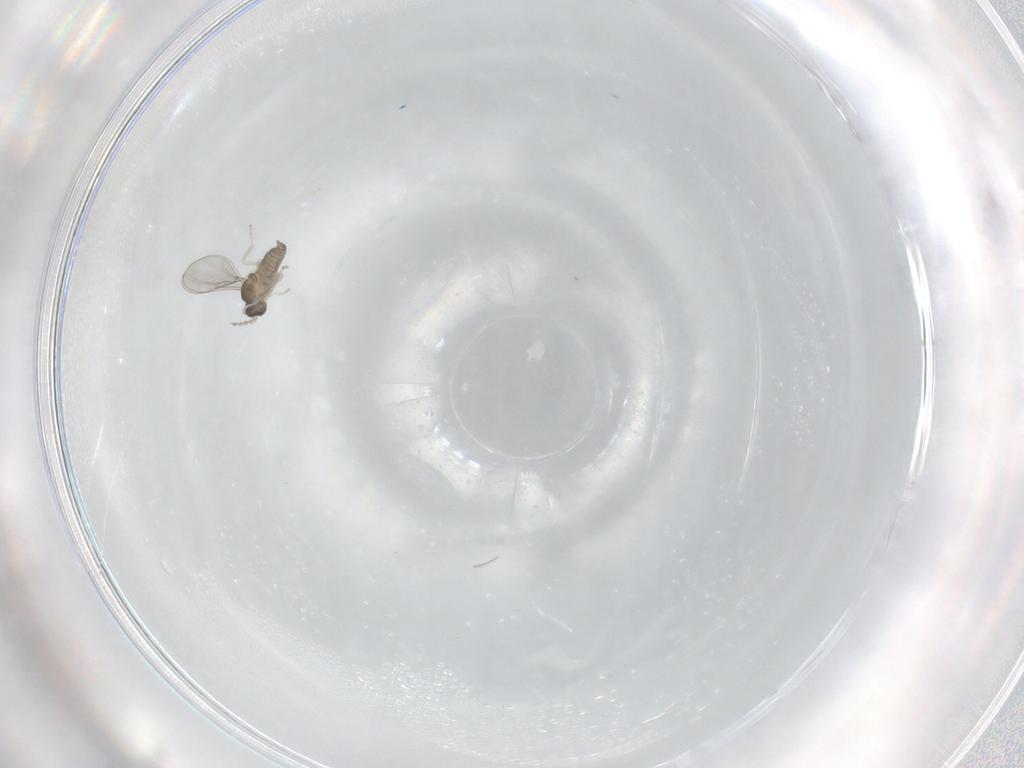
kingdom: Animalia
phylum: Arthropoda
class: Insecta
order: Diptera
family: Cecidomyiidae
